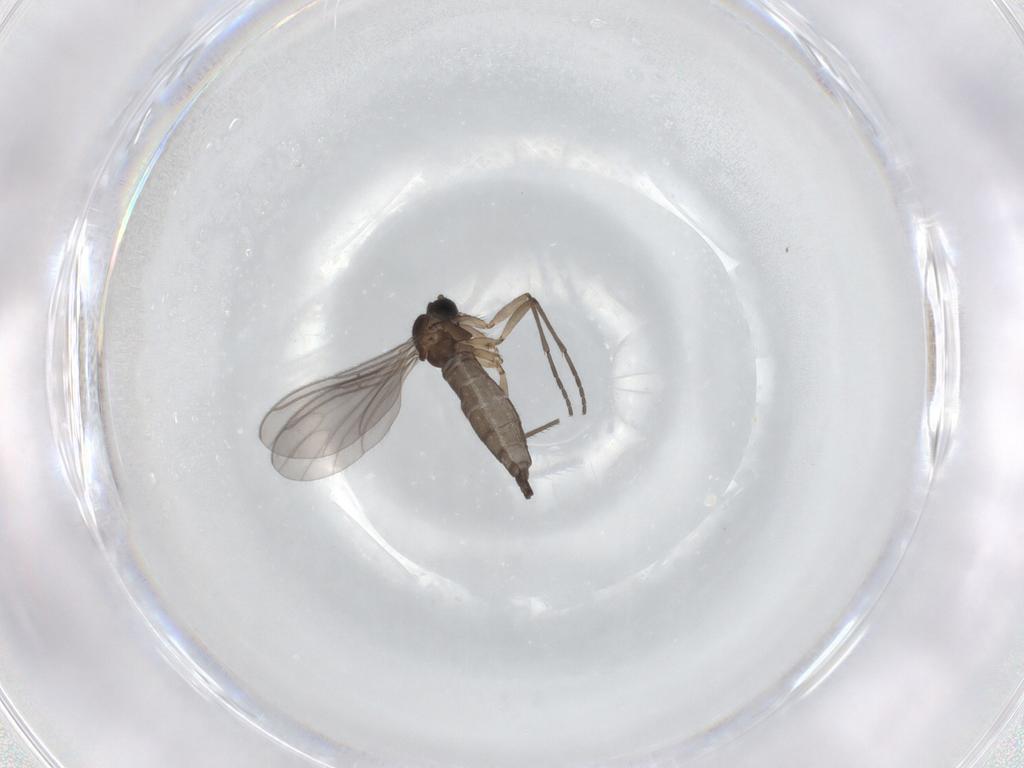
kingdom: Animalia
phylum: Arthropoda
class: Insecta
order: Diptera
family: Sciaridae
